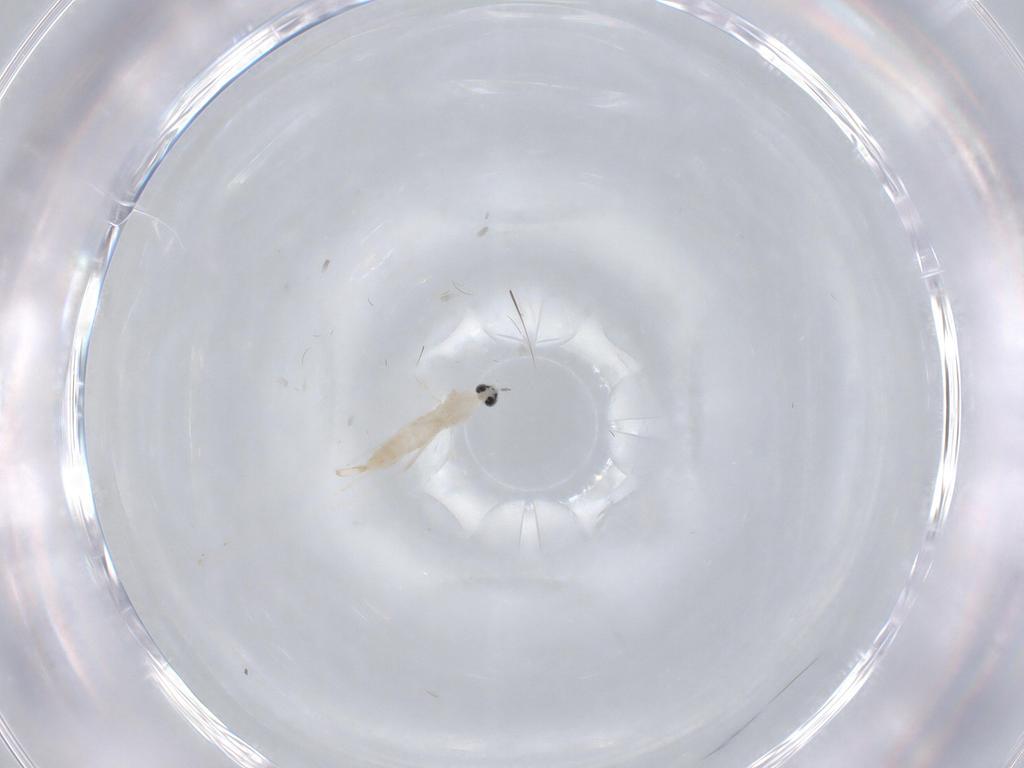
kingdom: Animalia
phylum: Arthropoda
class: Insecta
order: Diptera
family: Cecidomyiidae
